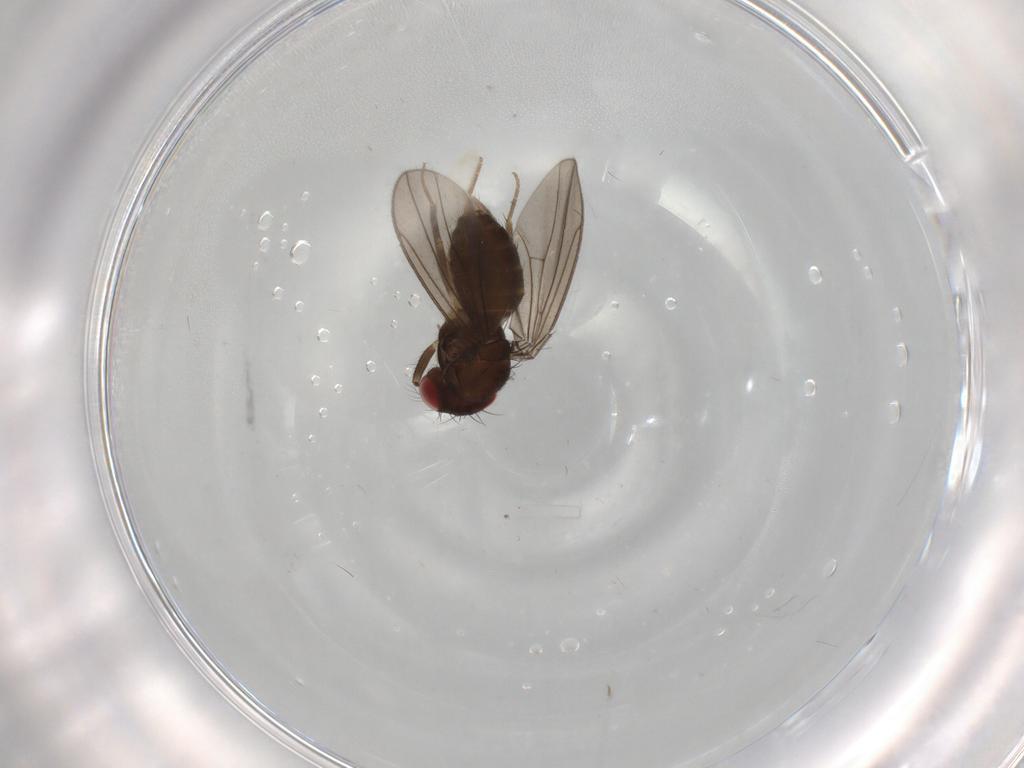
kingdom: Animalia
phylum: Arthropoda
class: Insecta
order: Diptera
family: Drosophilidae
